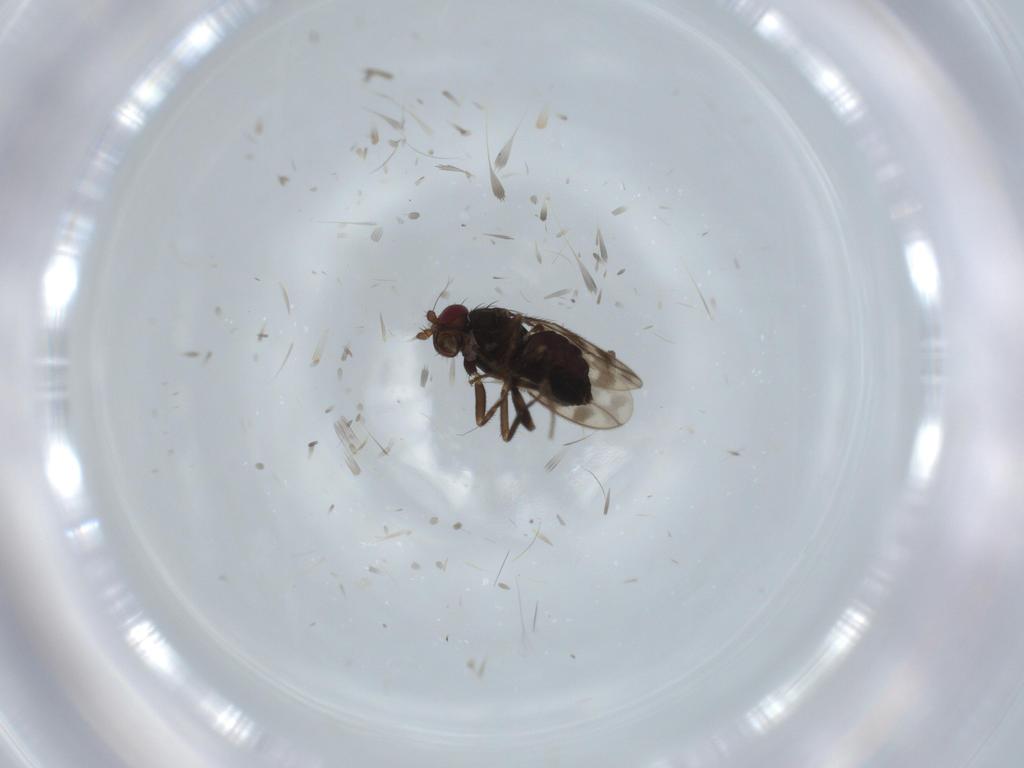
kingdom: Animalia
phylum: Arthropoda
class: Insecta
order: Diptera
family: Sphaeroceridae
